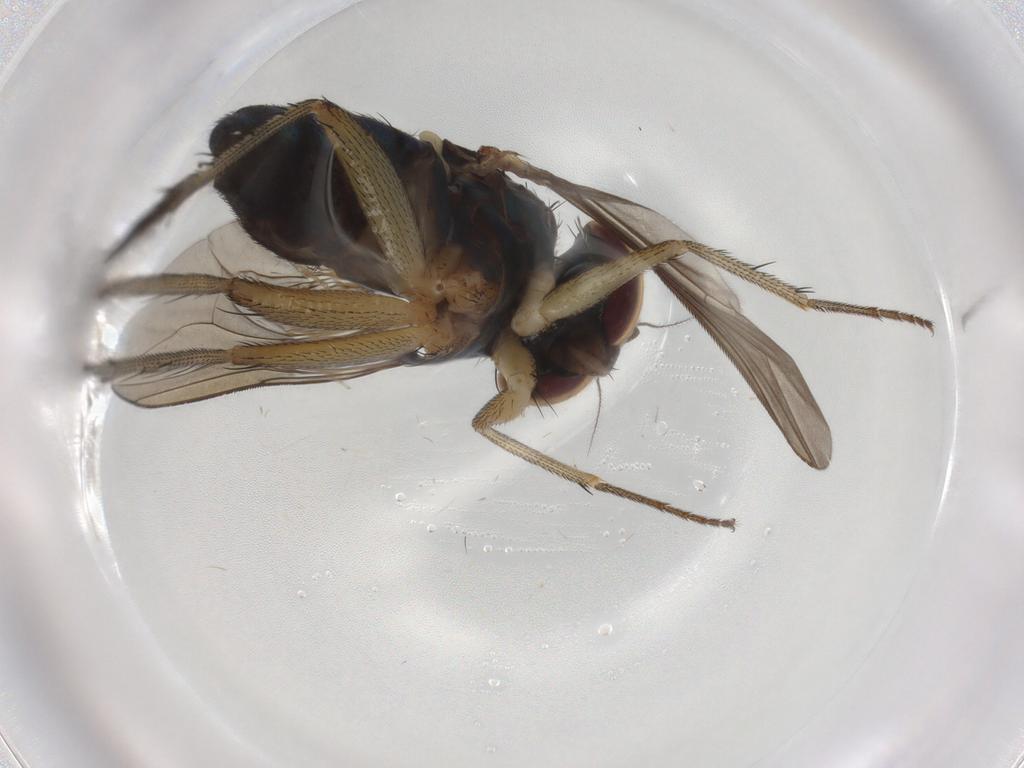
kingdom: Animalia
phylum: Arthropoda
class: Insecta
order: Diptera
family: Dolichopodidae
